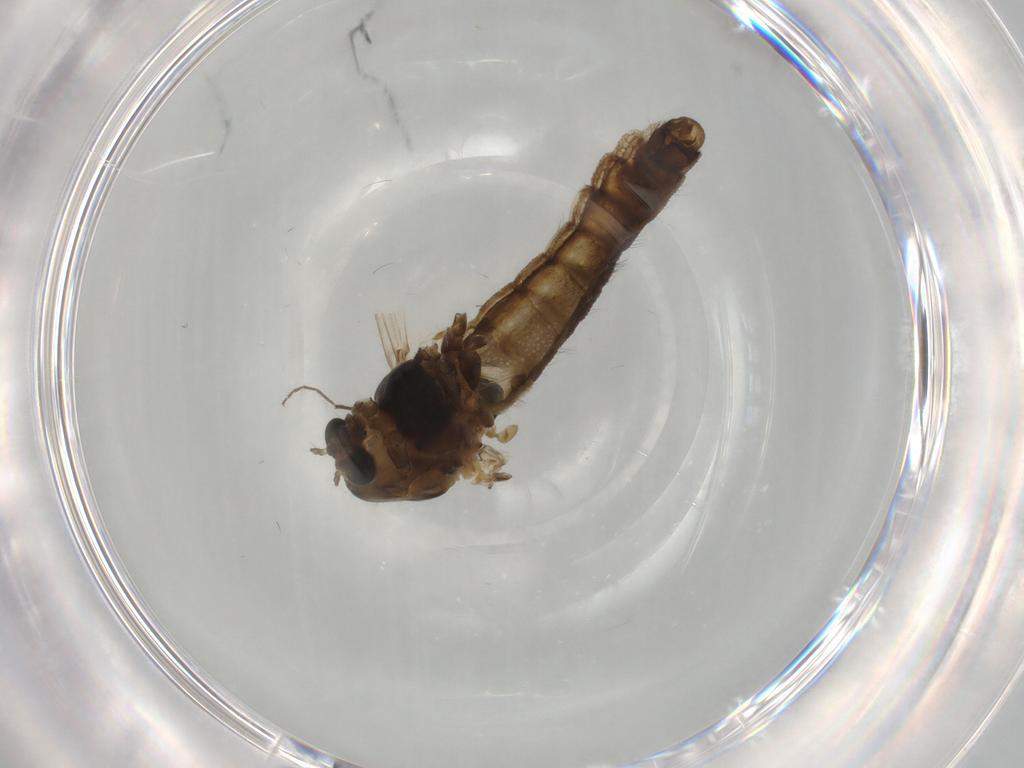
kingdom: Animalia
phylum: Arthropoda
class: Insecta
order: Diptera
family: Chironomidae
